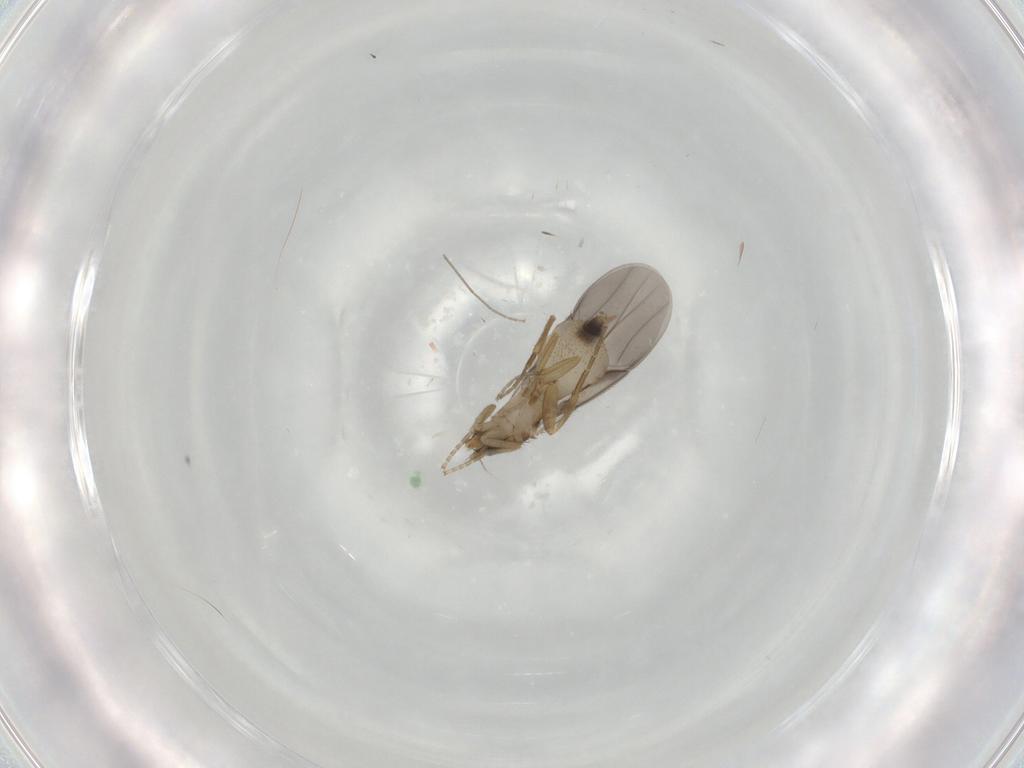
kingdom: Animalia
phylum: Arthropoda
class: Insecta
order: Diptera
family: Phoridae
